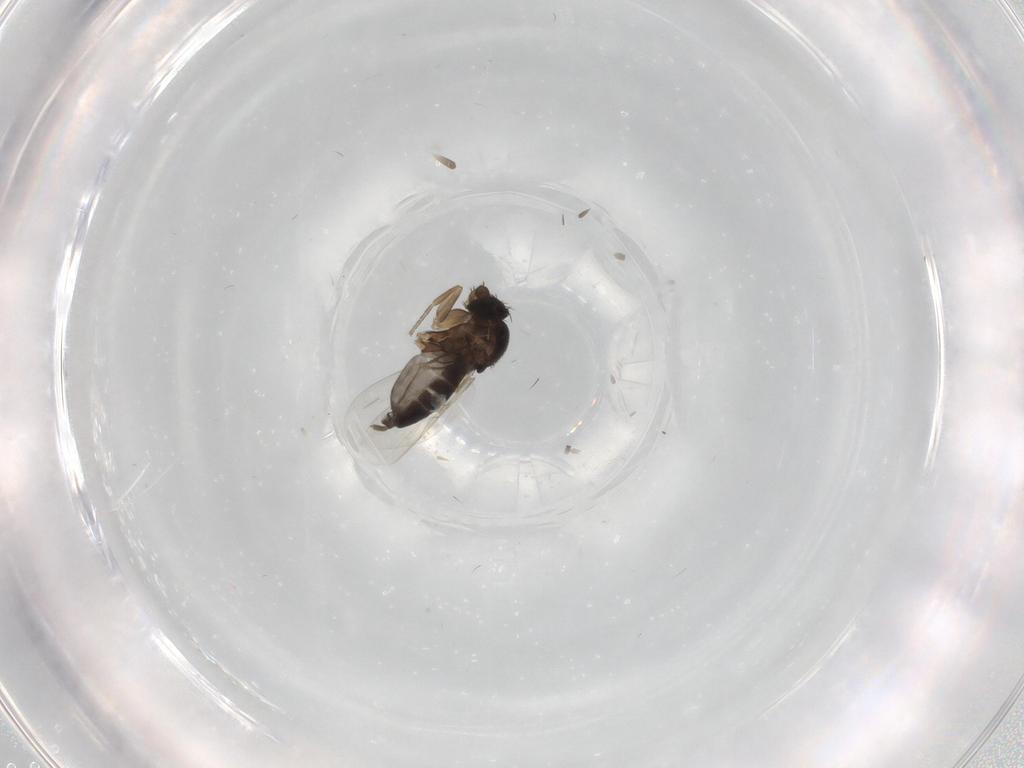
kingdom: Animalia
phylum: Arthropoda
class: Insecta
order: Diptera
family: Phoridae
